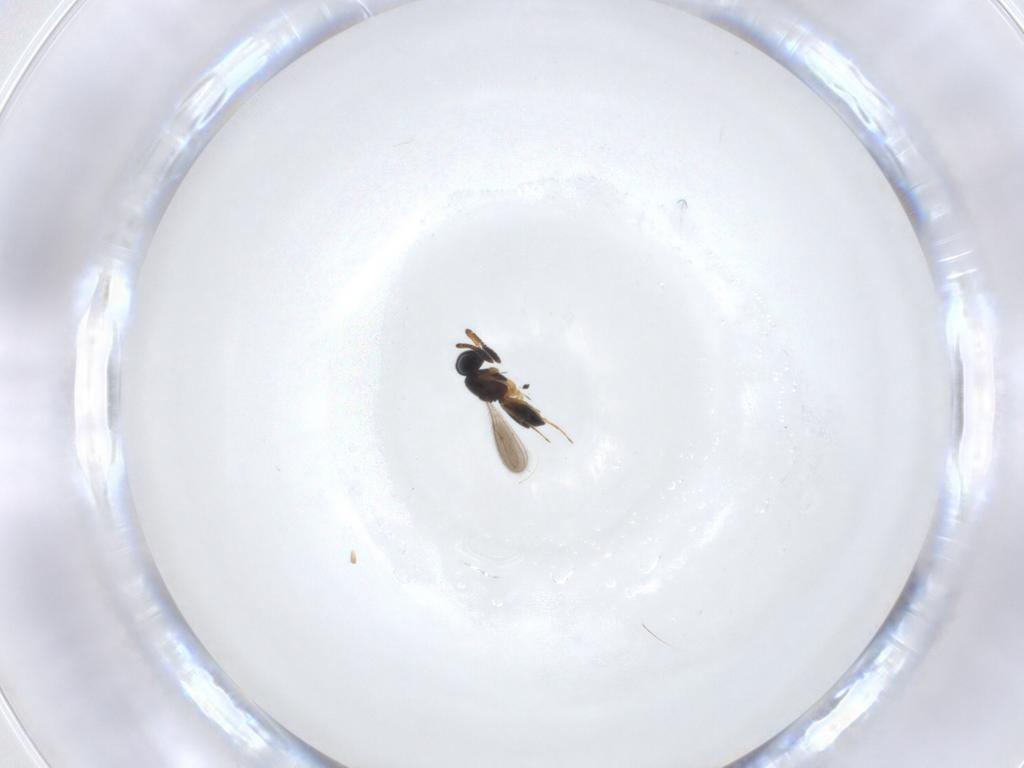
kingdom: Animalia
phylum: Arthropoda
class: Insecta
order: Hymenoptera
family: Scelionidae
